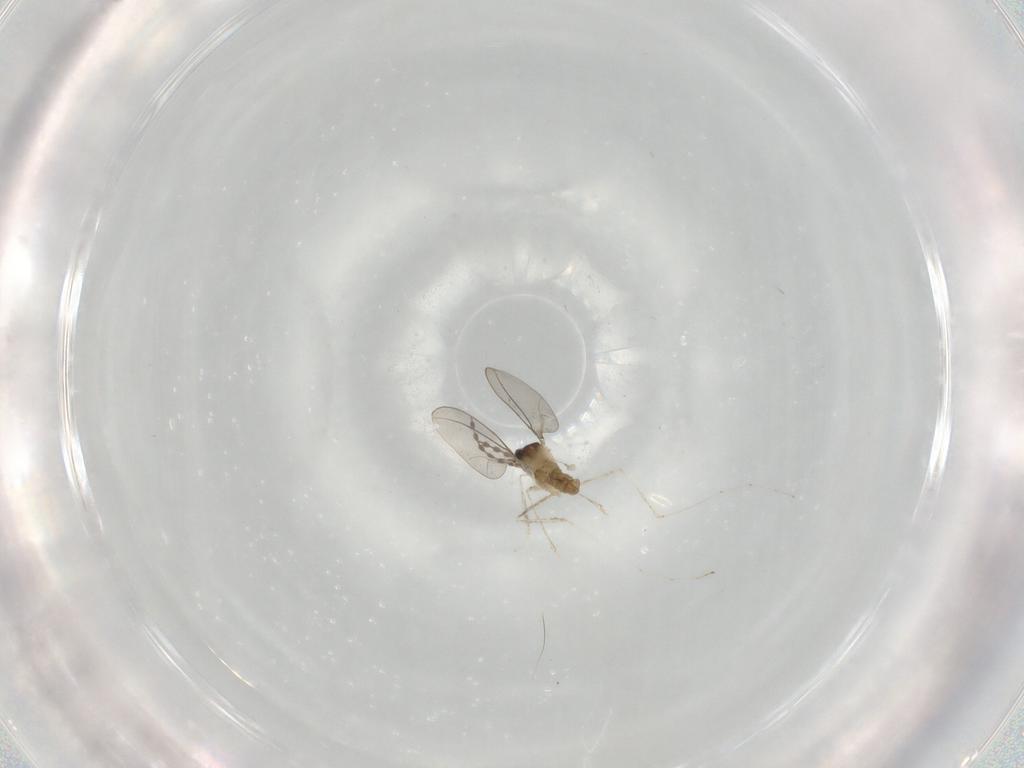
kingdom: Animalia
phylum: Arthropoda
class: Insecta
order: Diptera
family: Cecidomyiidae
